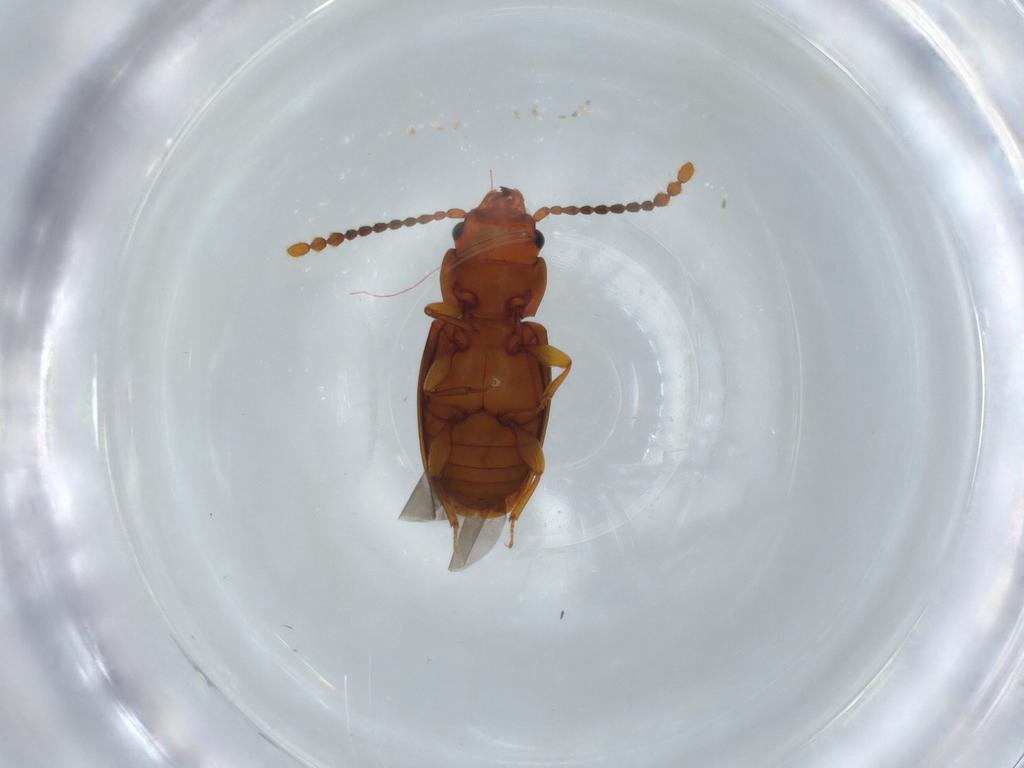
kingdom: Animalia
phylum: Arthropoda
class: Insecta
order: Coleoptera
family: Laemophloeidae
